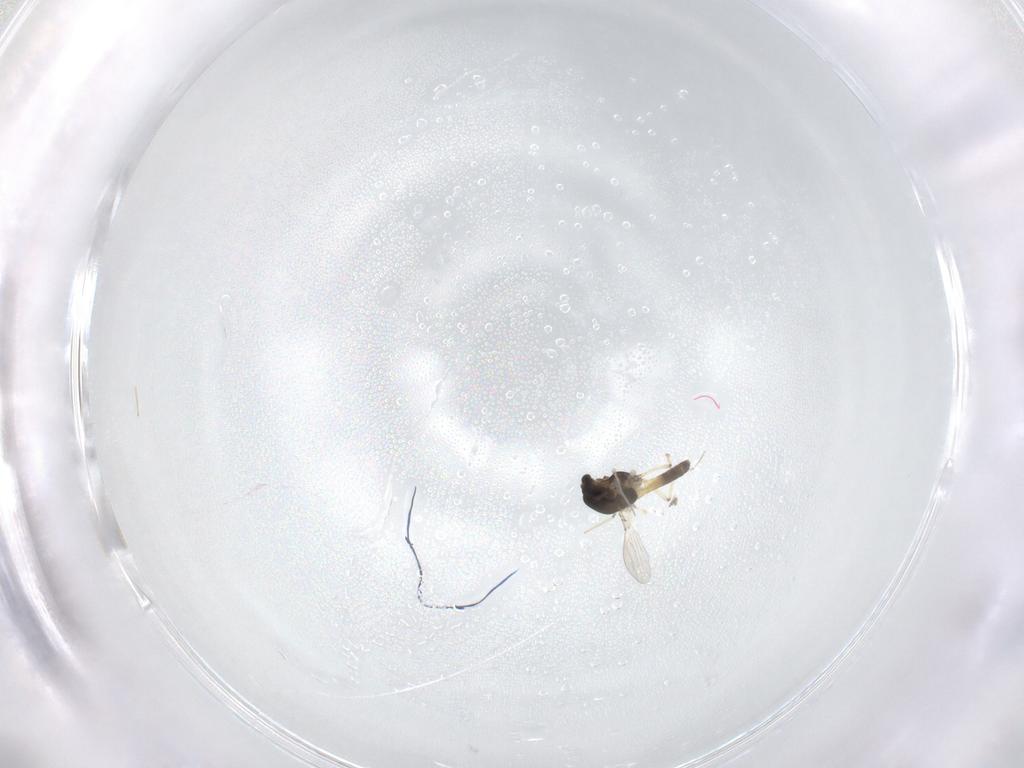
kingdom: Animalia
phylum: Arthropoda
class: Insecta
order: Diptera
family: Chironomidae
